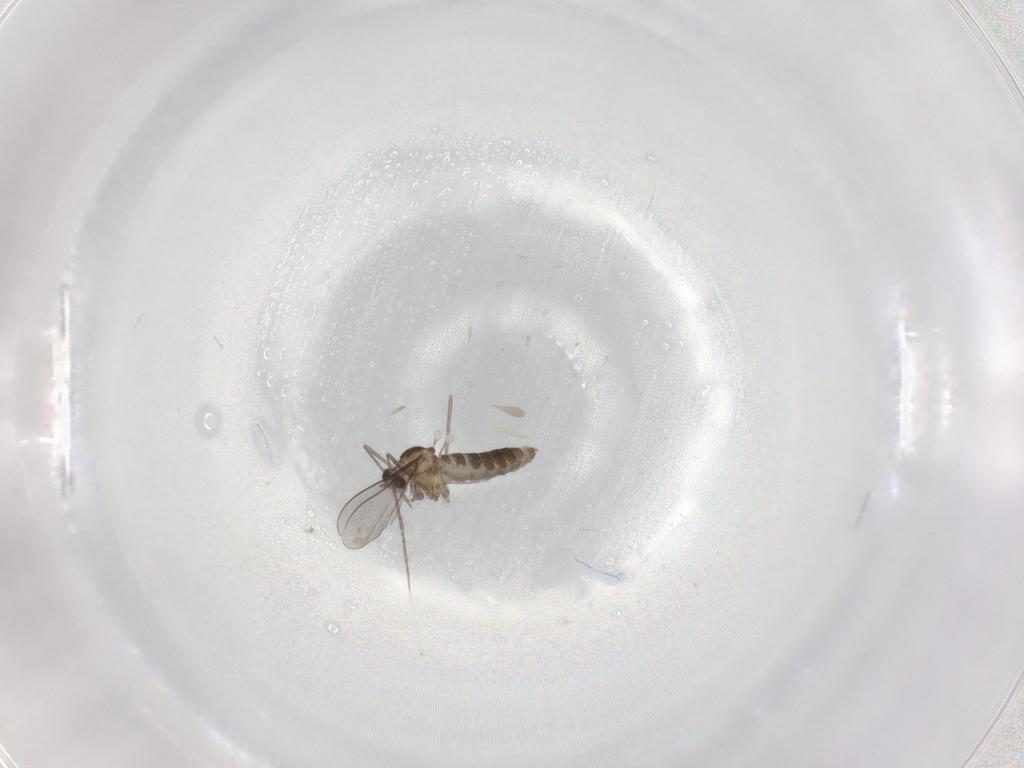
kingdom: Animalia
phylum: Arthropoda
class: Insecta
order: Diptera
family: Cecidomyiidae
